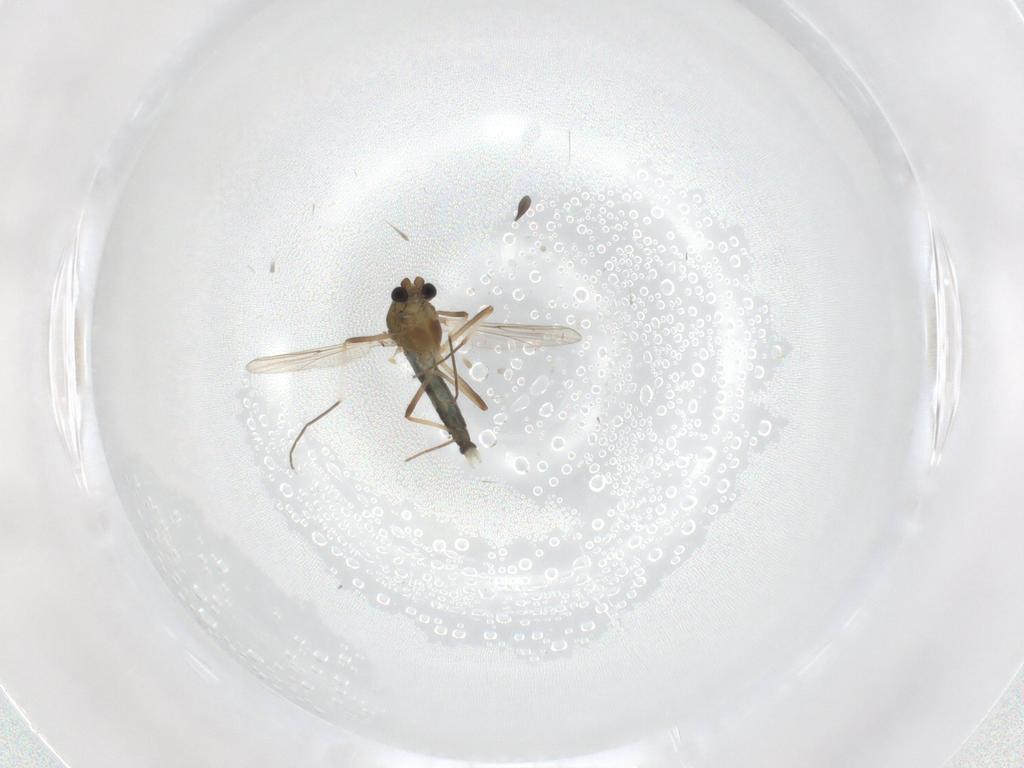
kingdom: Animalia
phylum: Arthropoda
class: Insecta
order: Diptera
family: Chironomidae
